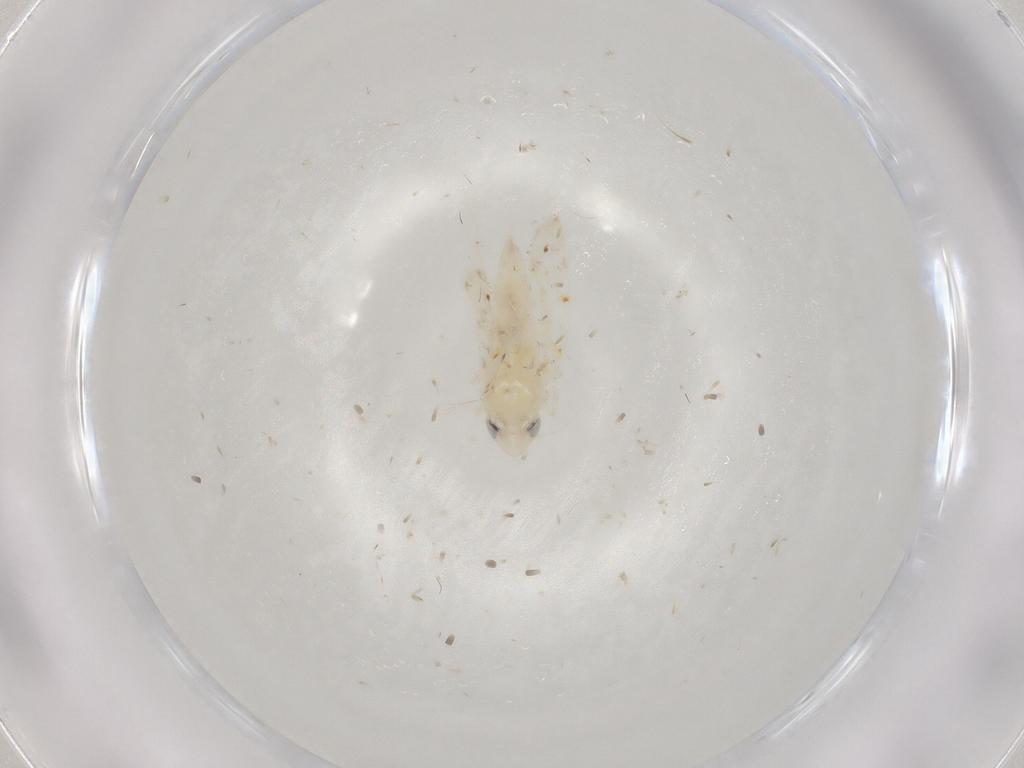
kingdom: Animalia
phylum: Arthropoda
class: Insecta
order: Hemiptera
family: Cicadellidae
